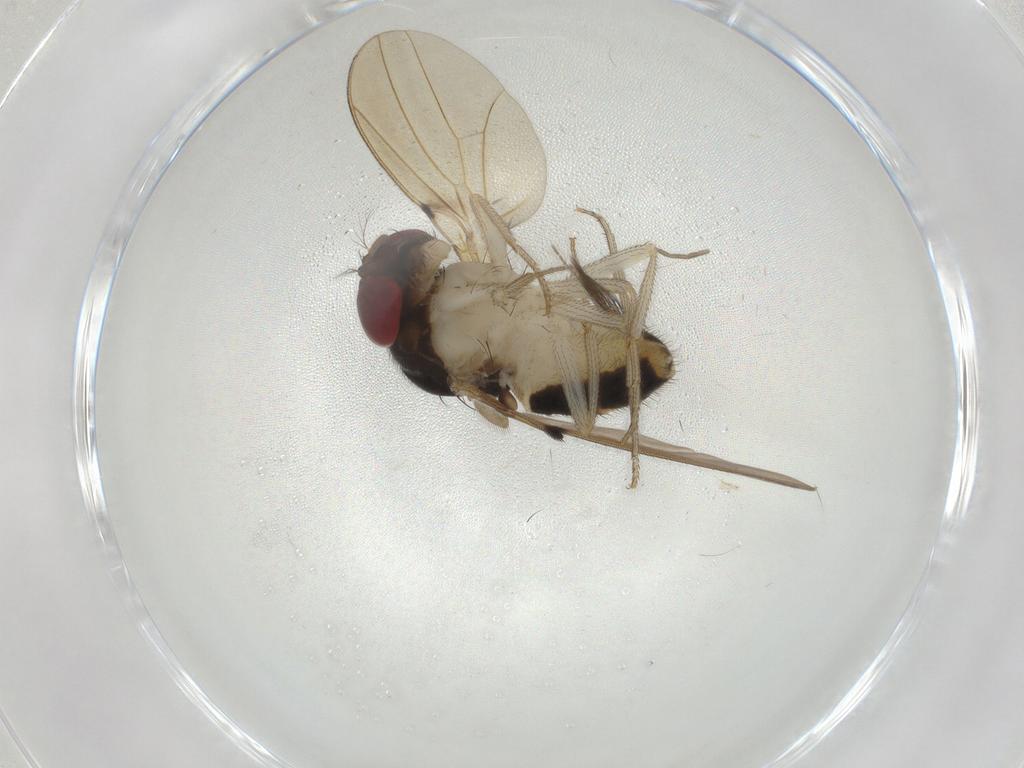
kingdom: Animalia
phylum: Arthropoda
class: Insecta
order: Diptera
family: Drosophilidae
